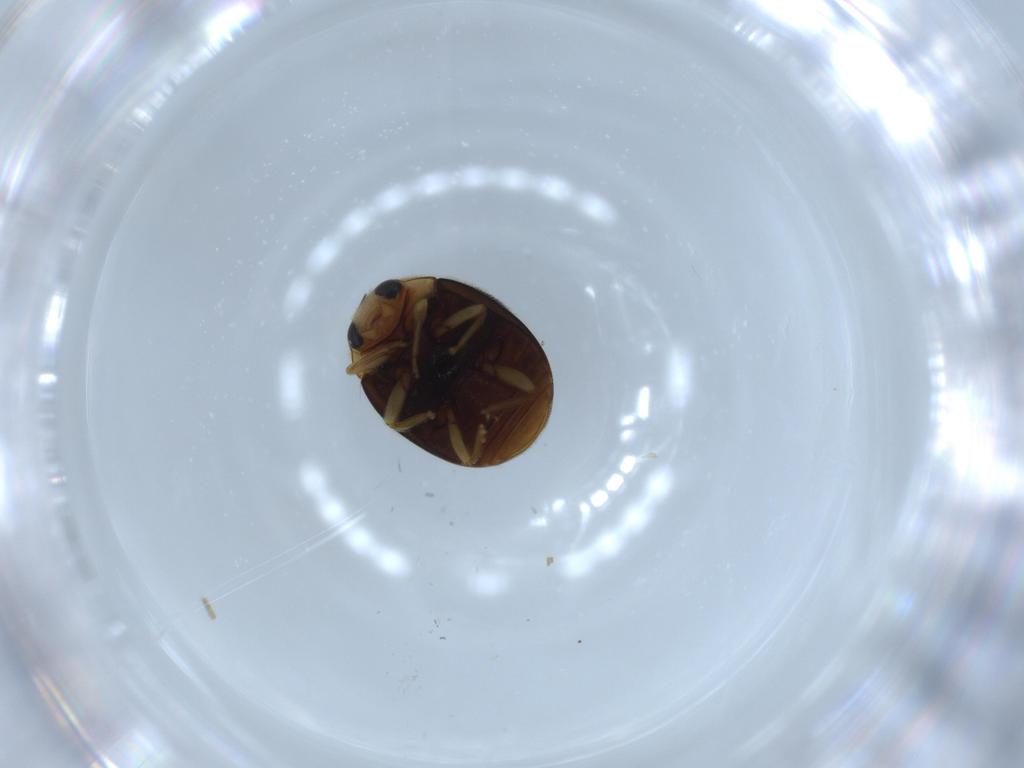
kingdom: Animalia
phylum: Arthropoda
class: Insecta
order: Coleoptera
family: Coccinellidae
